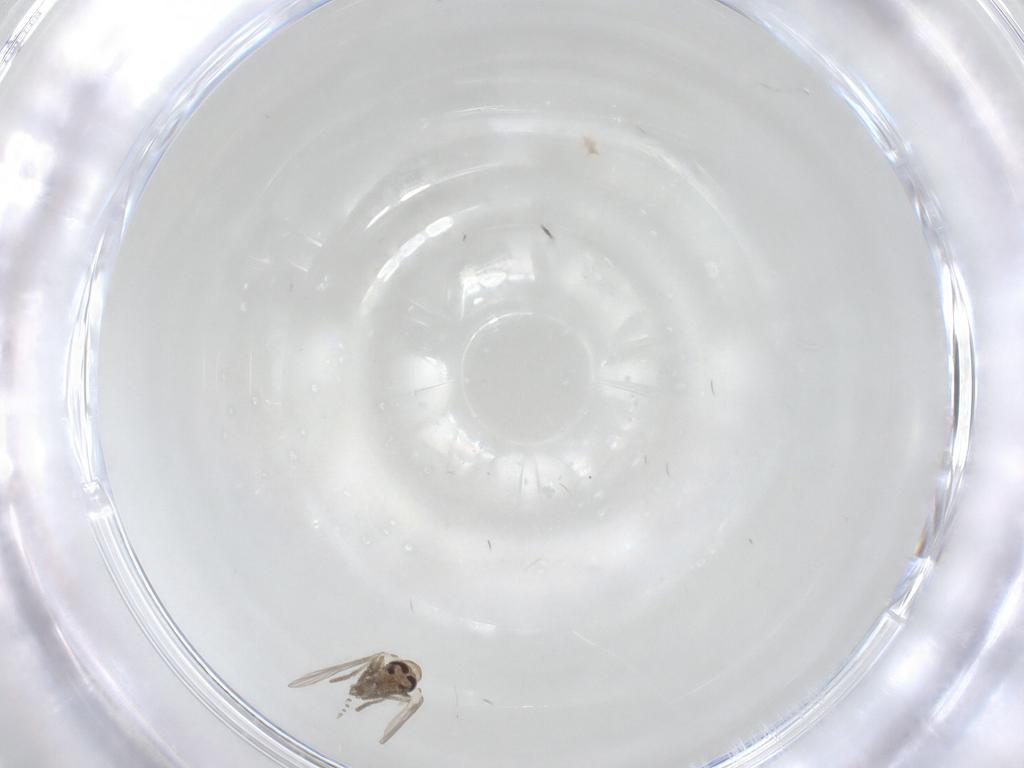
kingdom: Animalia
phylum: Arthropoda
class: Insecta
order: Diptera
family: Psychodidae
